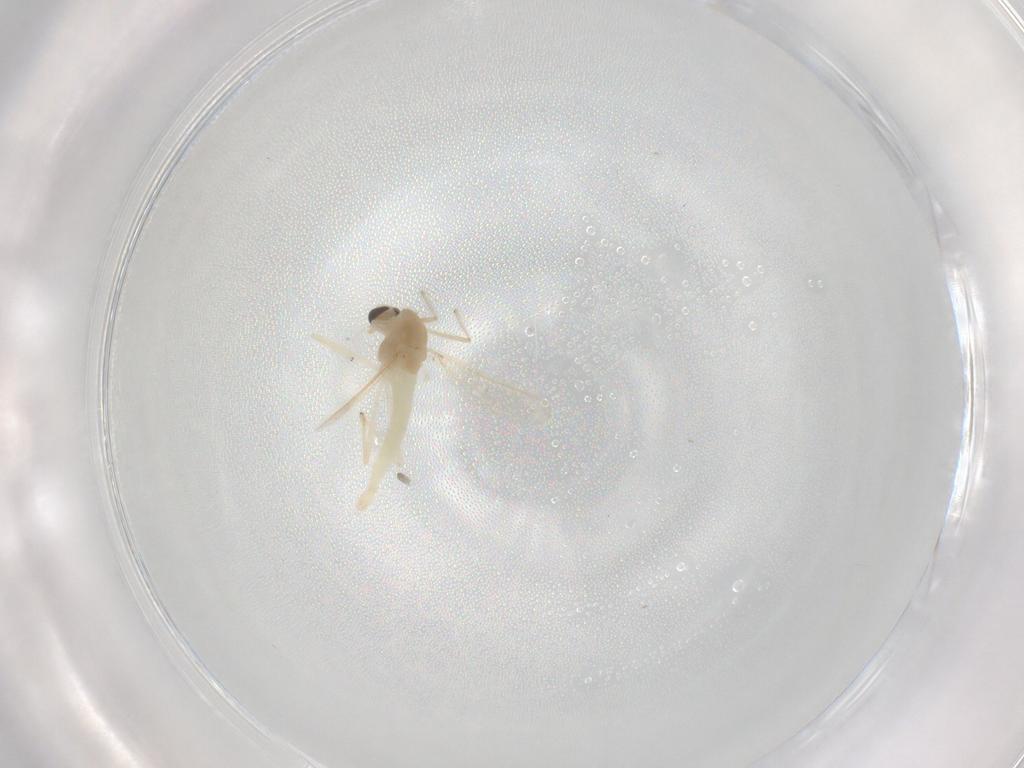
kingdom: Animalia
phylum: Arthropoda
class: Insecta
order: Diptera
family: Chironomidae
